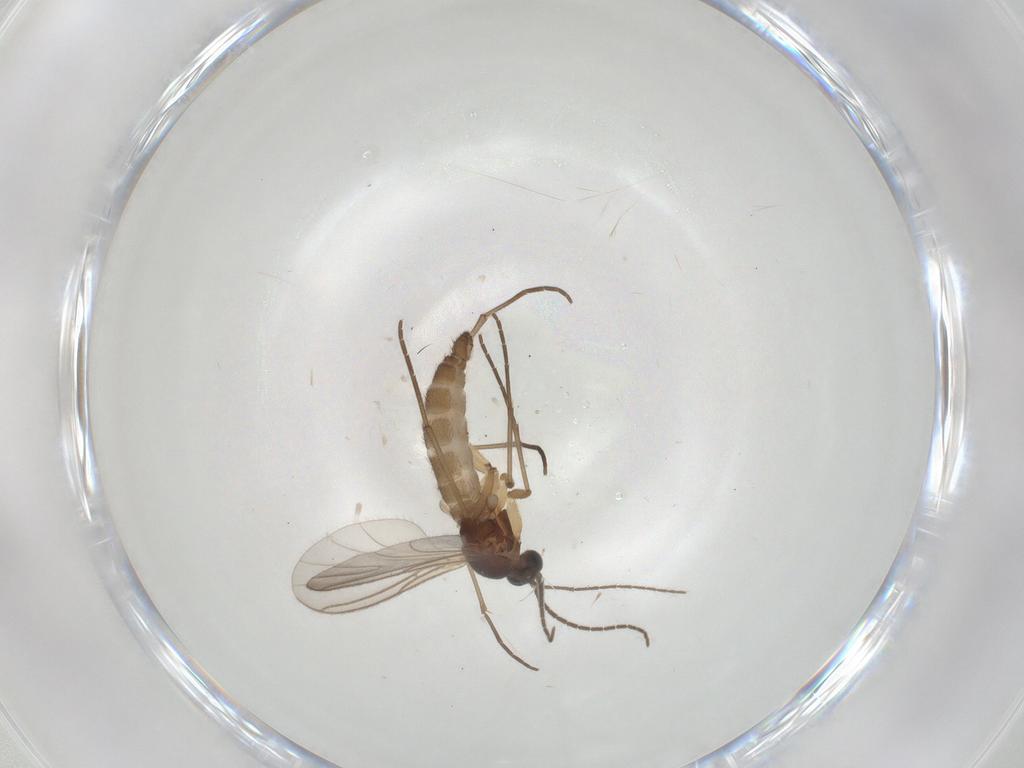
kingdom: Animalia
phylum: Arthropoda
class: Insecta
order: Diptera
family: Sciaridae
